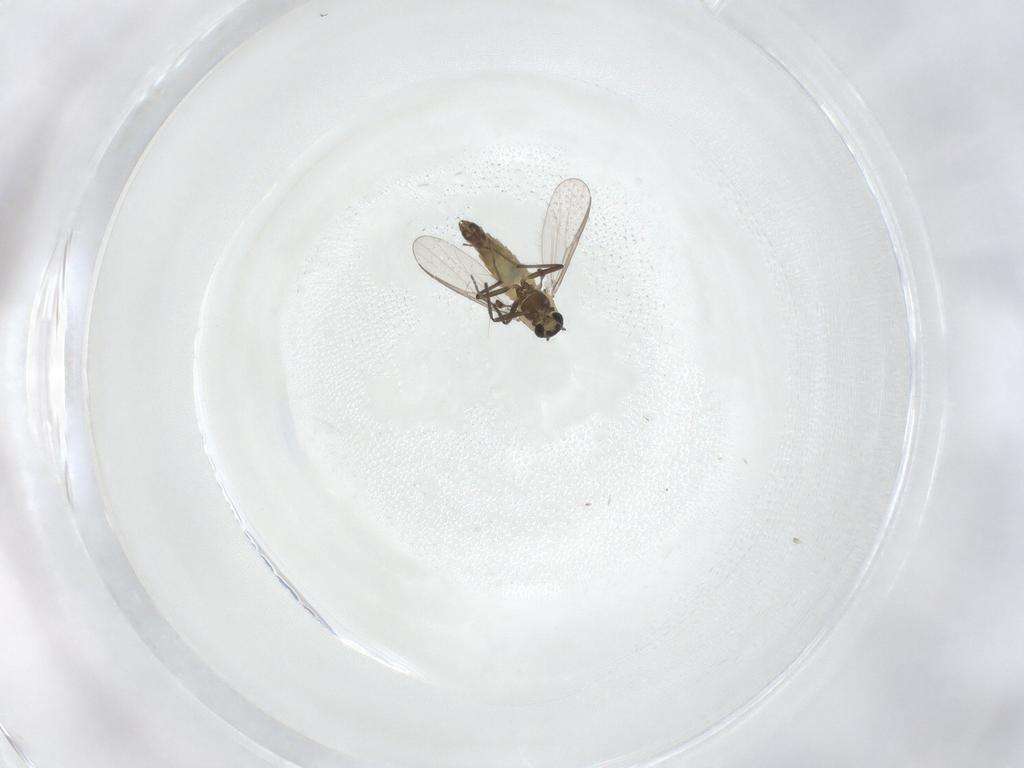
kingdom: Animalia
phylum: Arthropoda
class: Insecta
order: Diptera
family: Chironomidae
